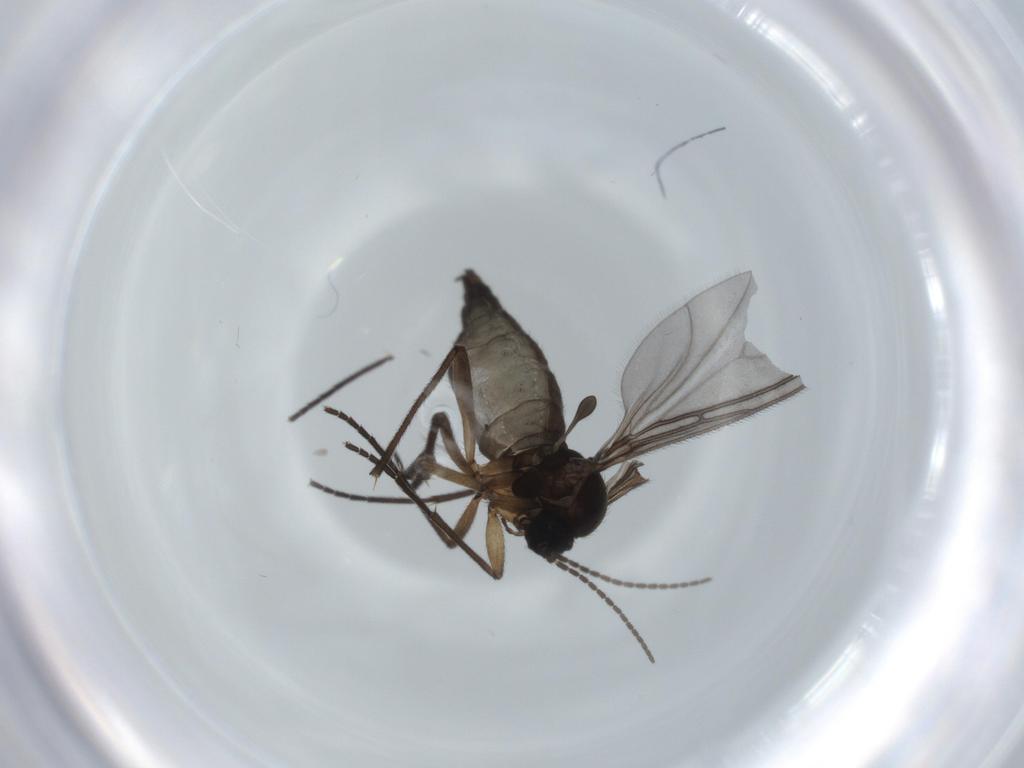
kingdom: Animalia
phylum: Arthropoda
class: Insecta
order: Diptera
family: Sciaridae
